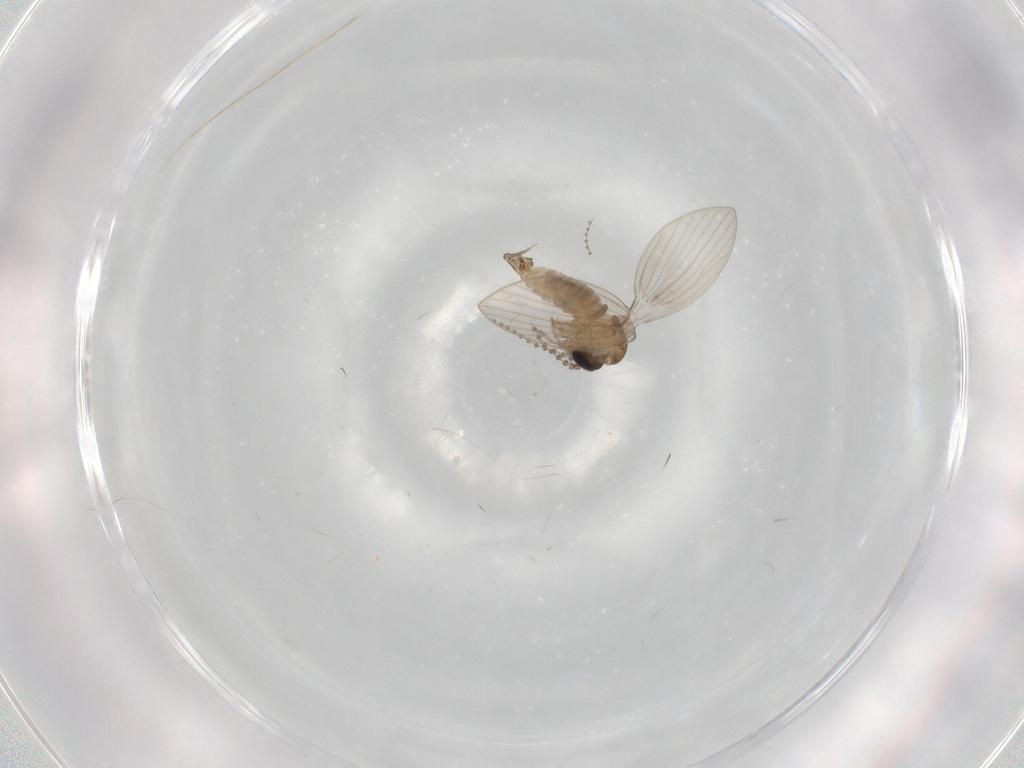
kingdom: Animalia
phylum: Arthropoda
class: Insecta
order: Diptera
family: Psychodidae
